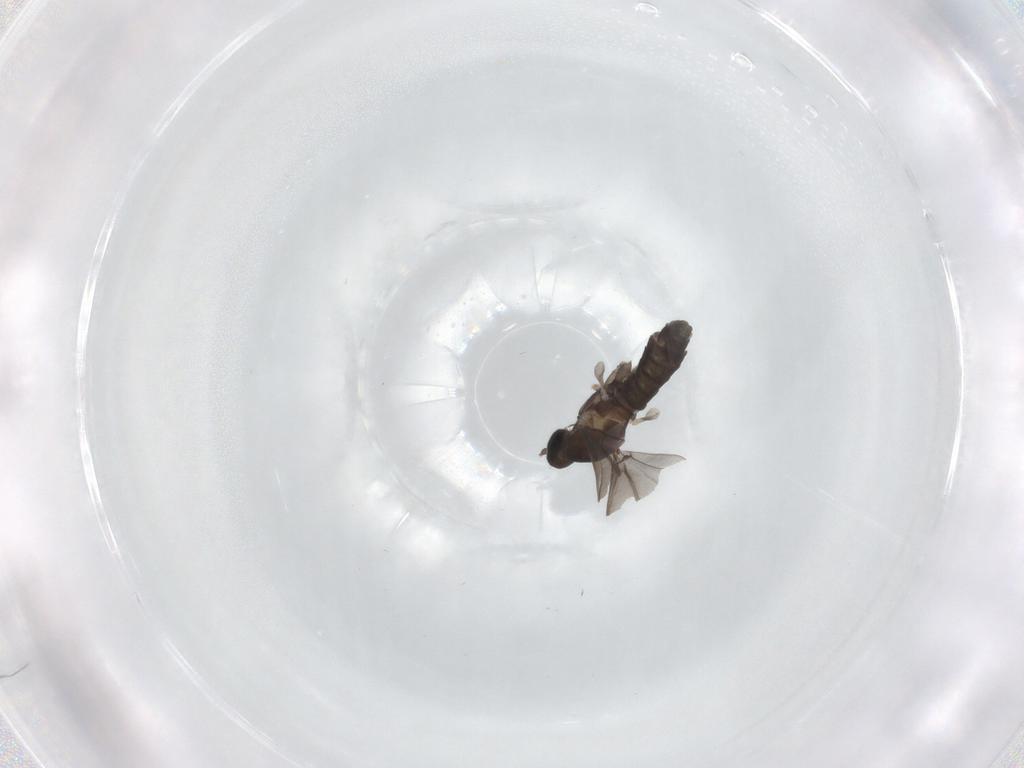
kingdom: Animalia
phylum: Arthropoda
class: Insecta
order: Diptera
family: Cecidomyiidae
